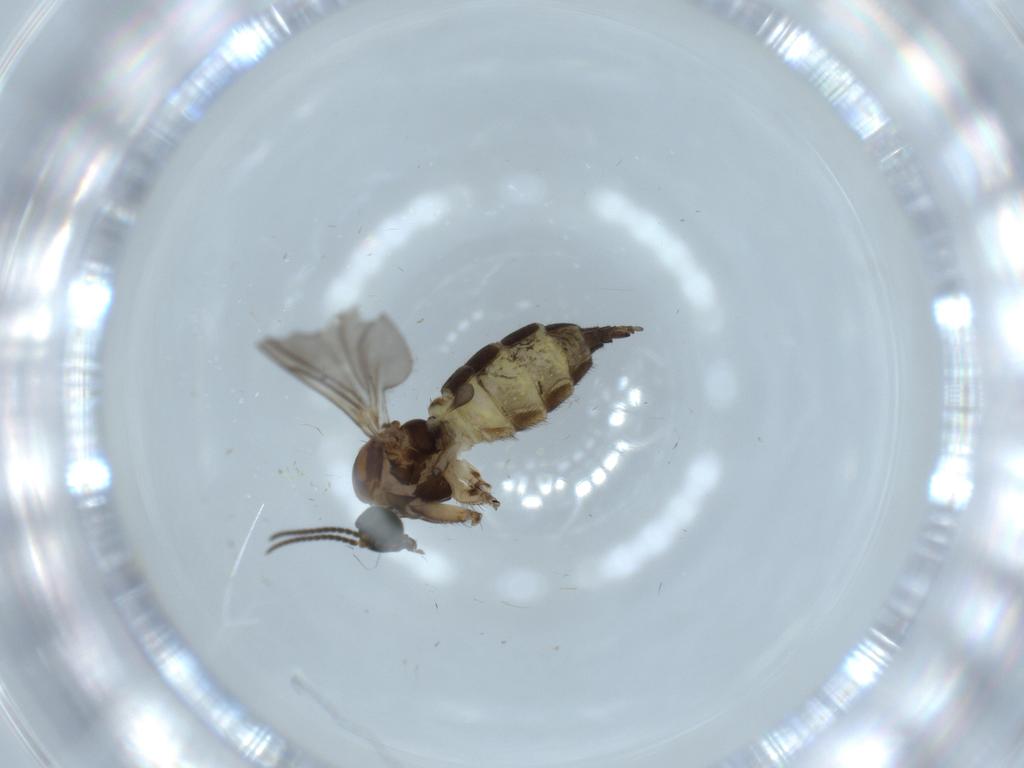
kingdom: Animalia
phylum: Arthropoda
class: Insecta
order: Diptera
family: Sciaridae
